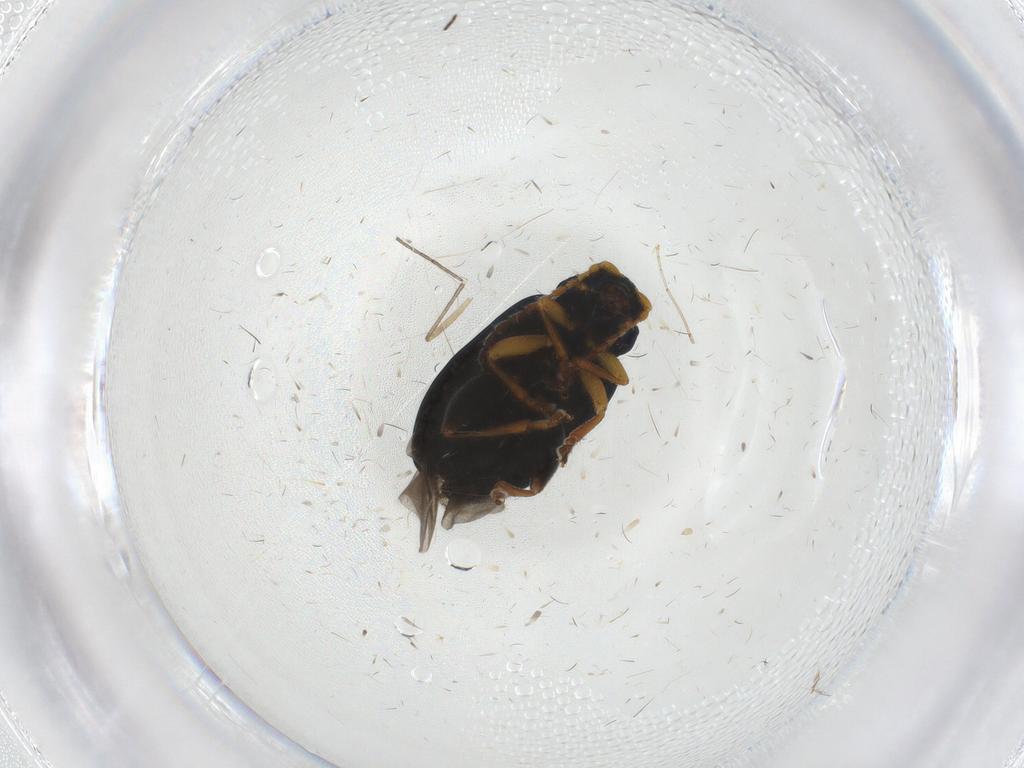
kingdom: Animalia
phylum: Arthropoda
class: Insecta
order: Coleoptera
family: Chrysomelidae
